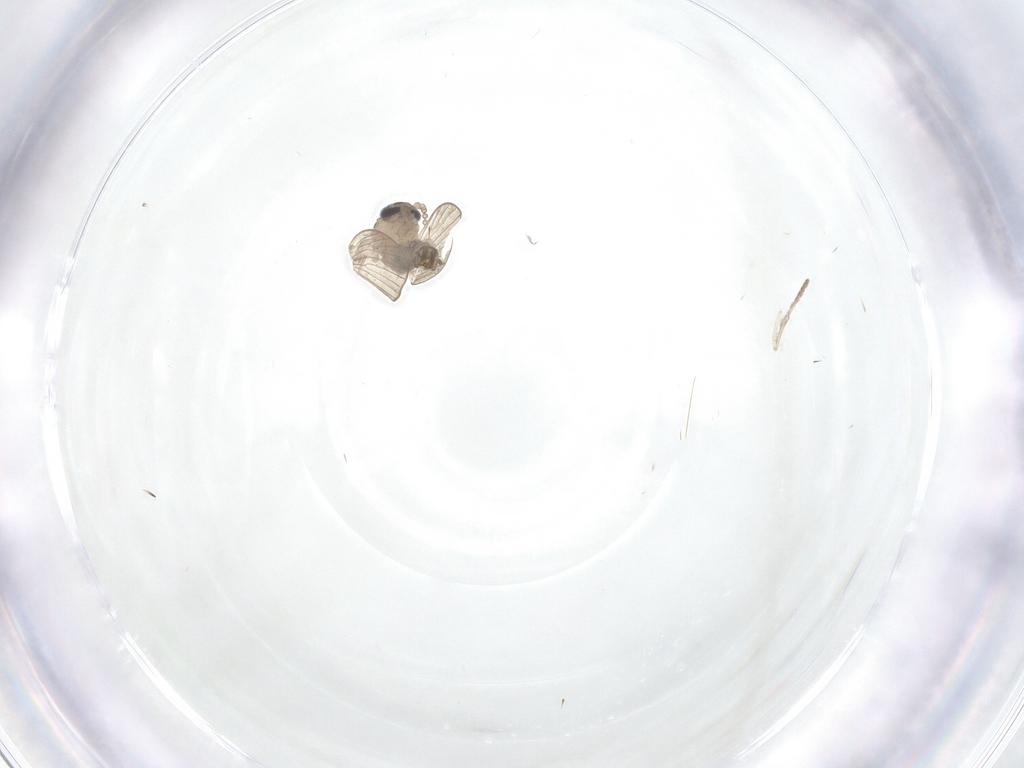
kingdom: Animalia
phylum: Arthropoda
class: Insecta
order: Diptera
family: Psychodidae
